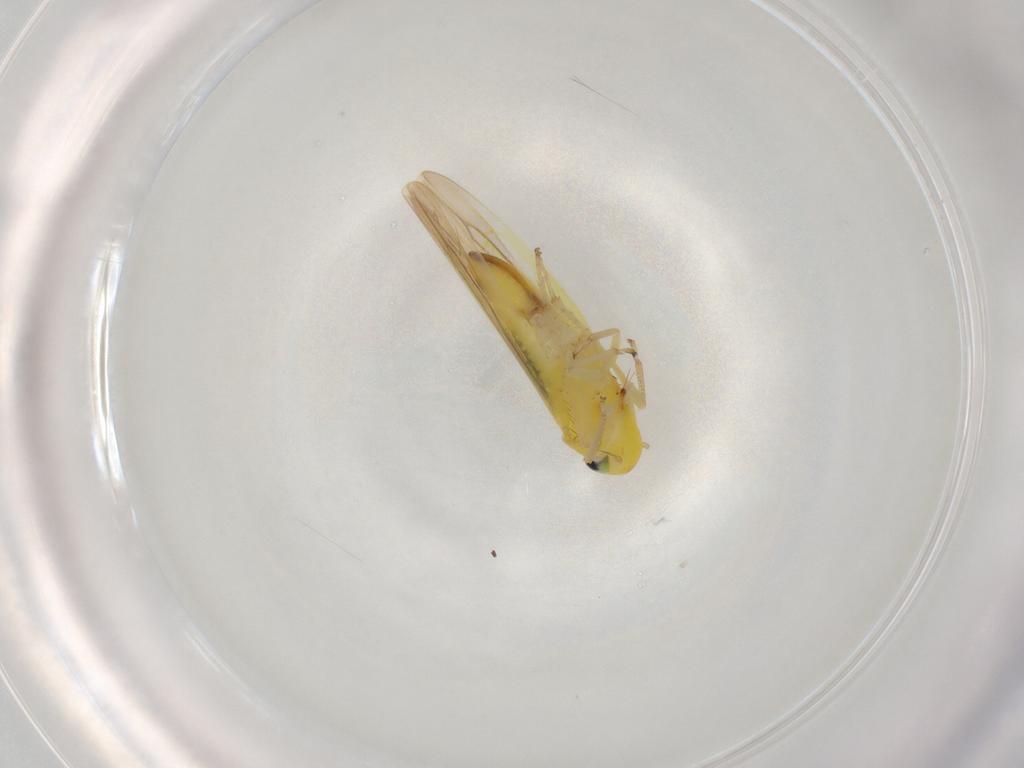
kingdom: Animalia
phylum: Arthropoda
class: Insecta
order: Hemiptera
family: Cicadellidae
